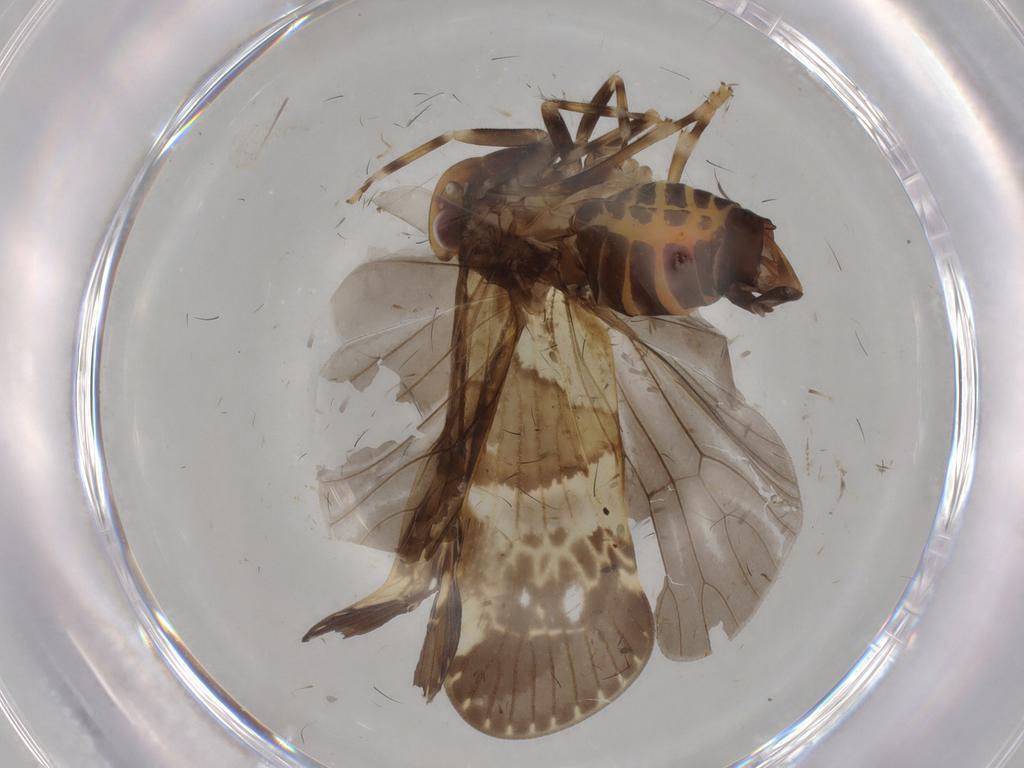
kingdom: Animalia
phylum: Arthropoda
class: Insecta
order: Hemiptera
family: Cixiidae
